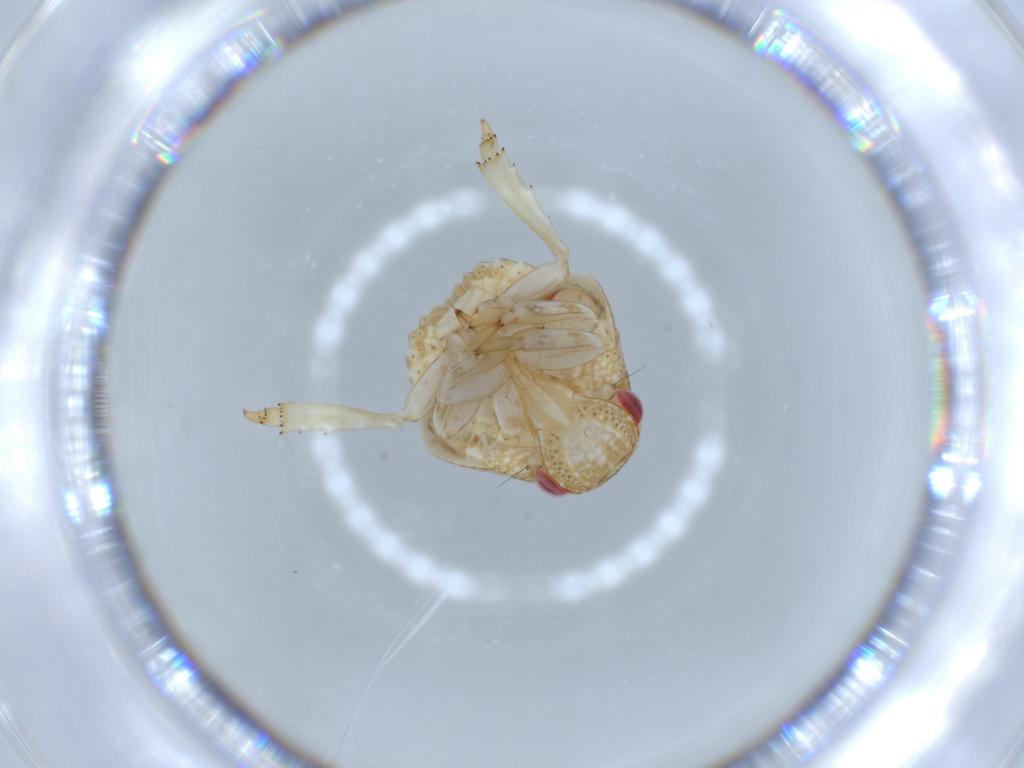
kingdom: Animalia
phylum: Arthropoda
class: Insecta
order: Hemiptera
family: Acanaloniidae
